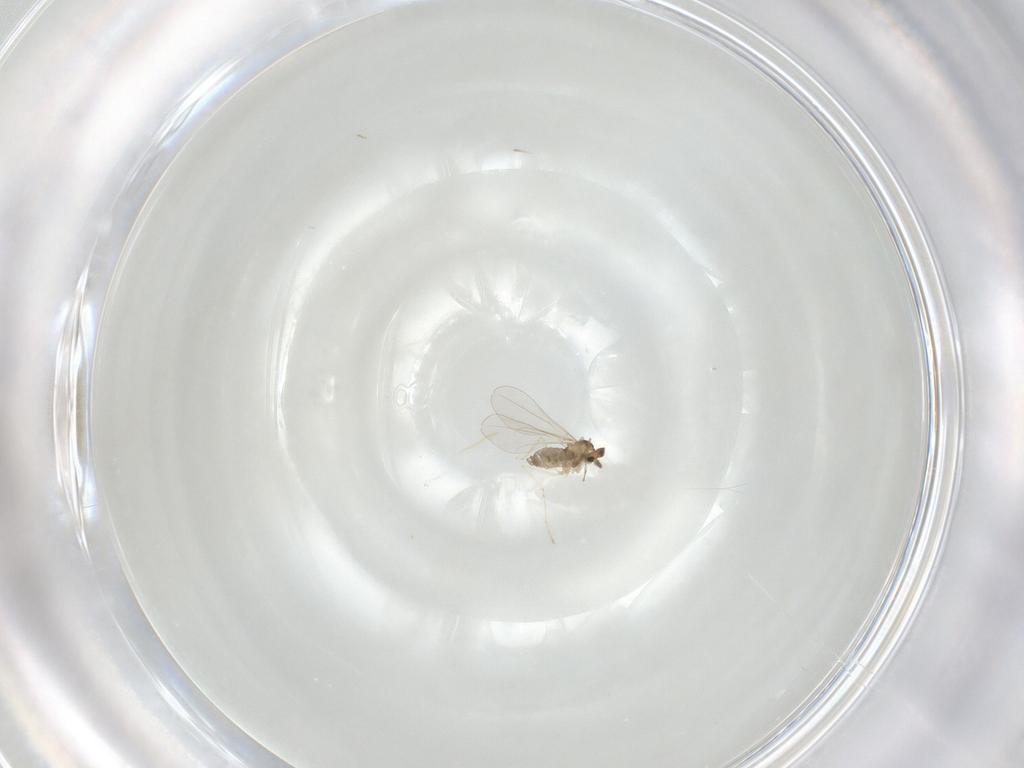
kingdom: Animalia
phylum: Arthropoda
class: Insecta
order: Diptera
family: Cecidomyiidae
